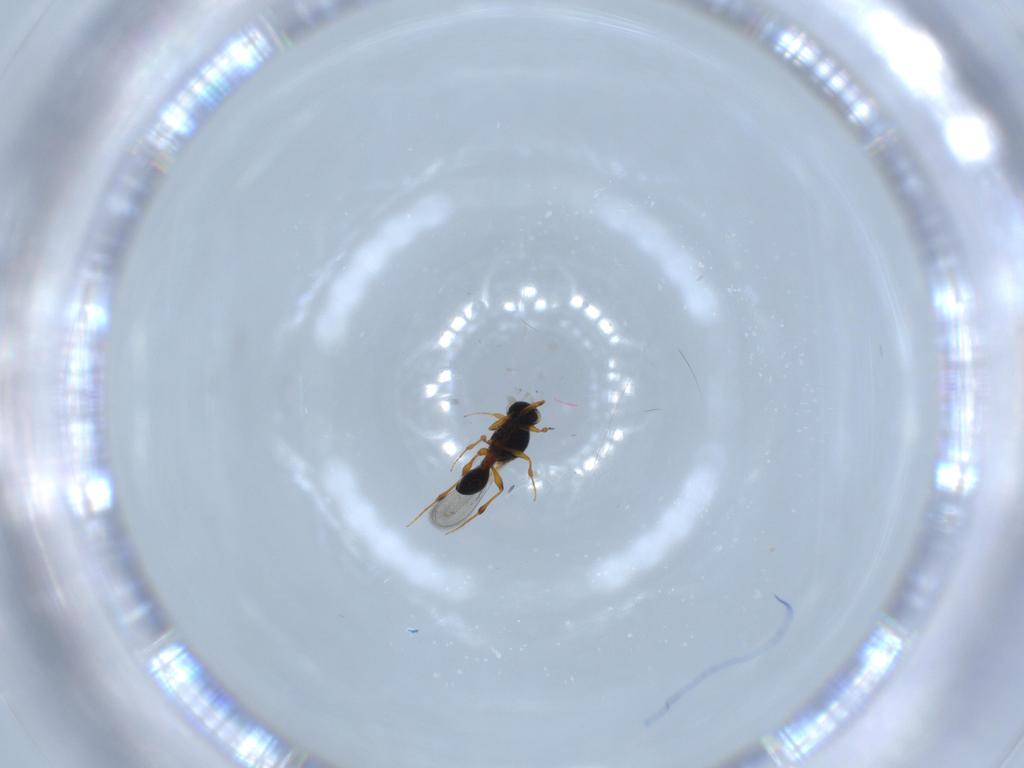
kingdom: Animalia
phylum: Arthropoda
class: Insecta
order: Hymenoptera
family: Platygastridae
